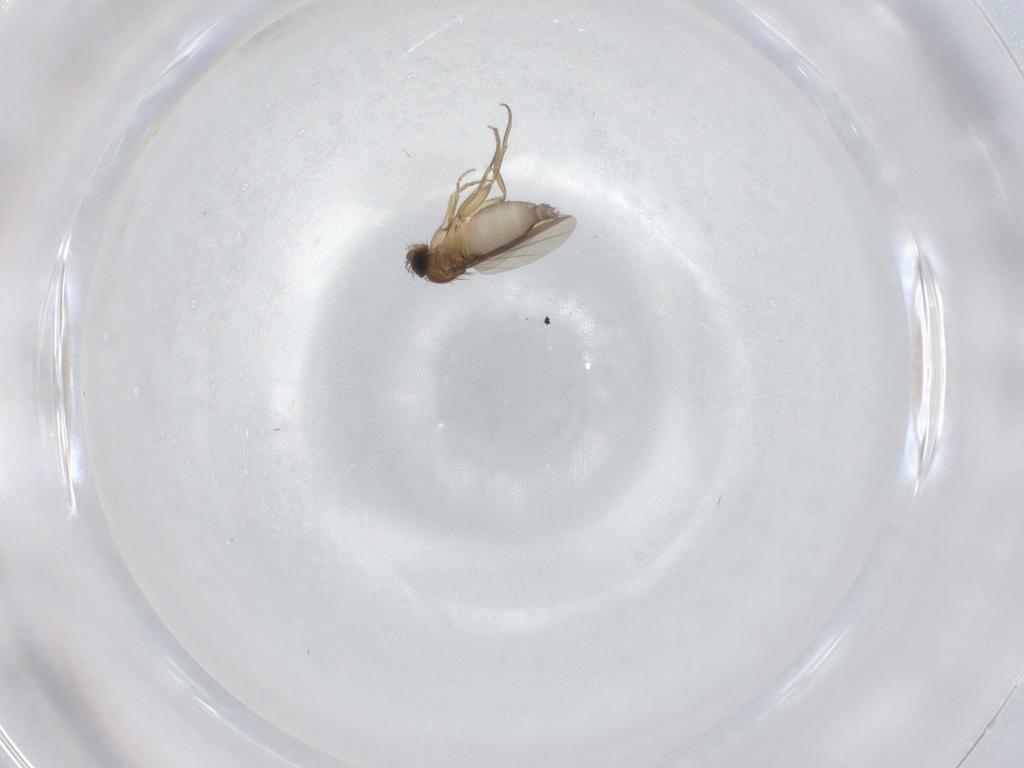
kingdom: Animalia
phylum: Arthropoda
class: Insecta
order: Diptera
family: Phoridae
